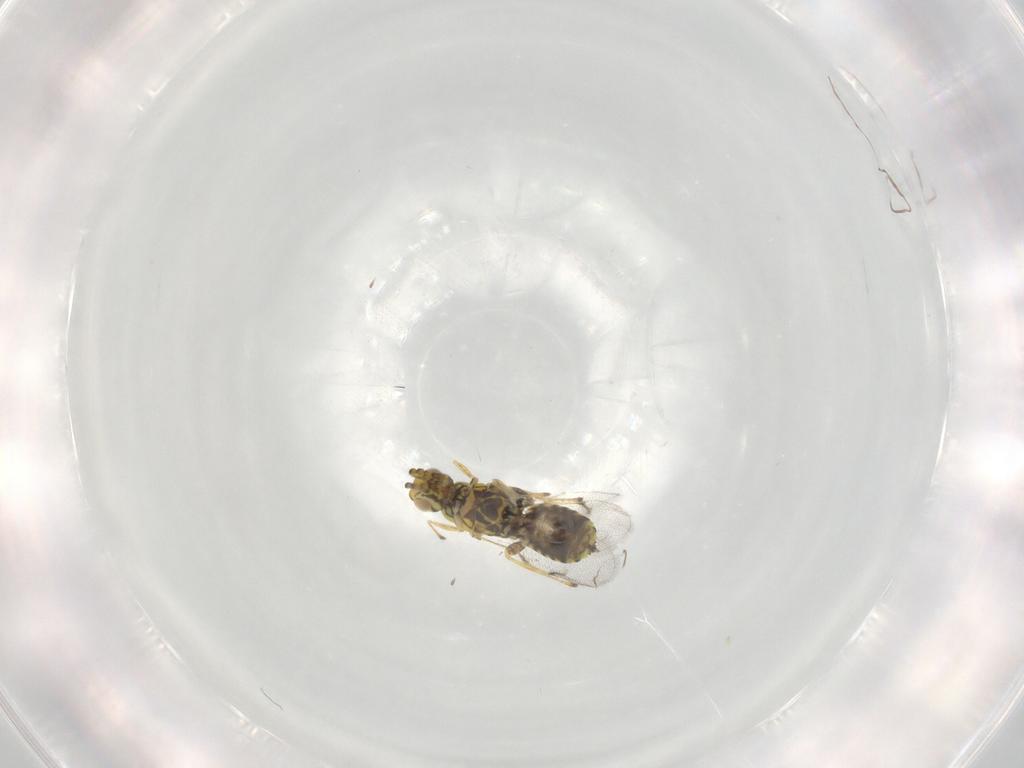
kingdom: Animalia
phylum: Arthropoda
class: Insecta
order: Hymenoptera
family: Eulophidae
